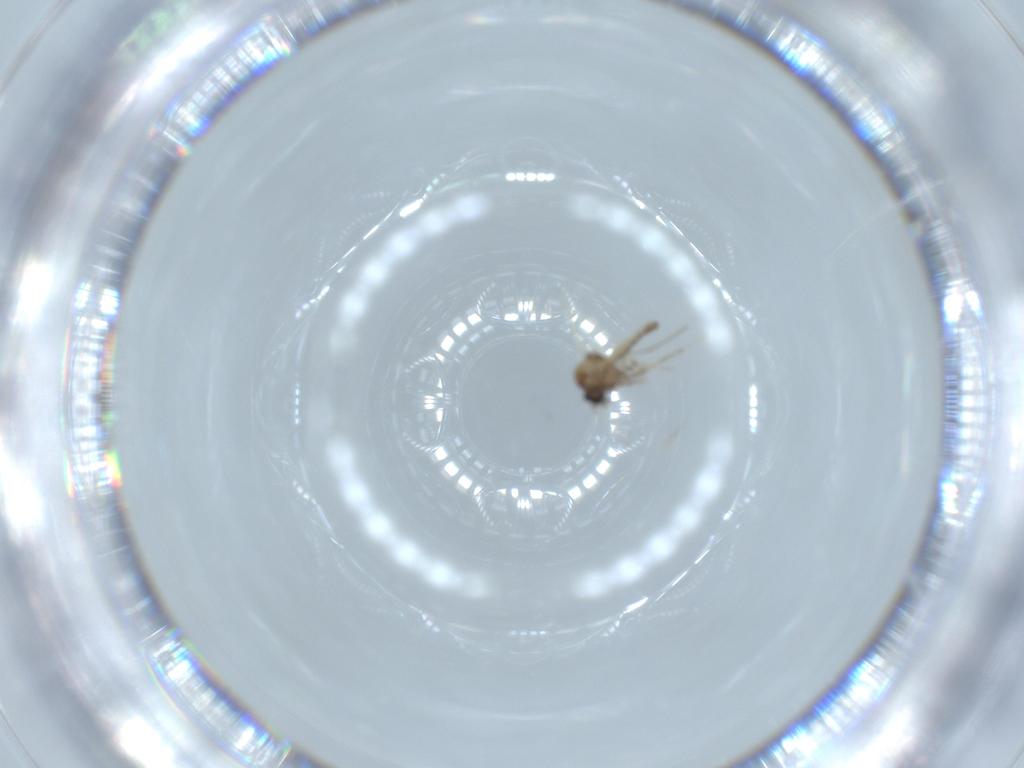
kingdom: Animalia
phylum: Arthropoda
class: Insecta
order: Diptera
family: Ceratopogonidae
